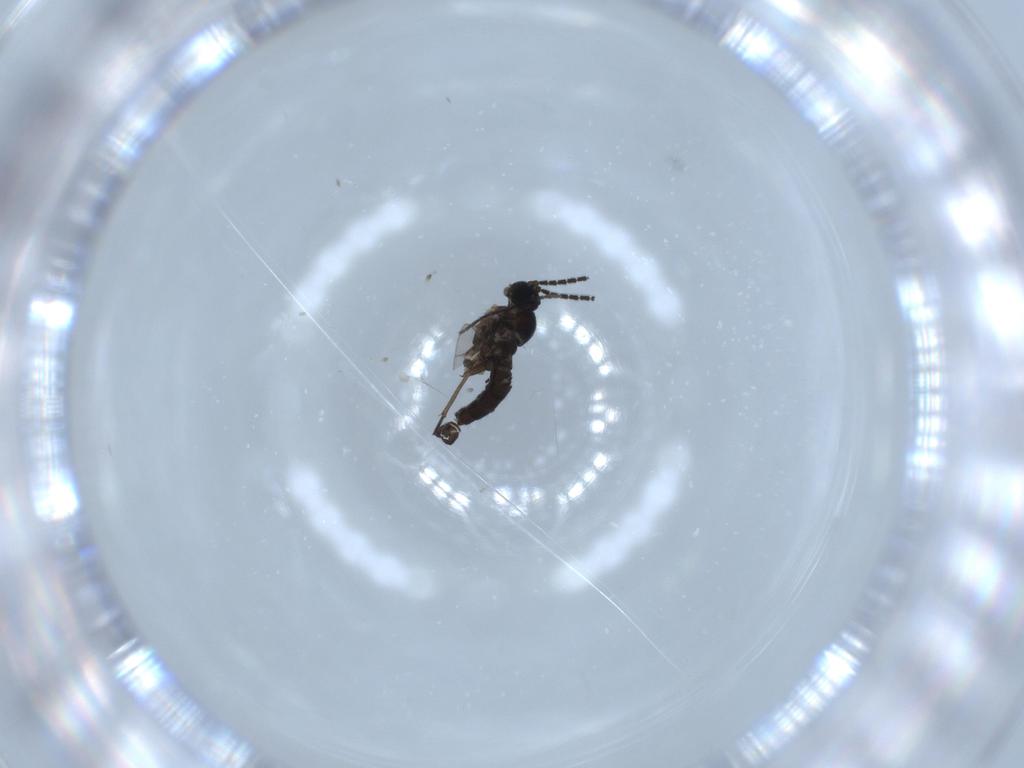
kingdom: Animalia
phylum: Arthropoda
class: Insecta
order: Diptera
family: Sciaridae
